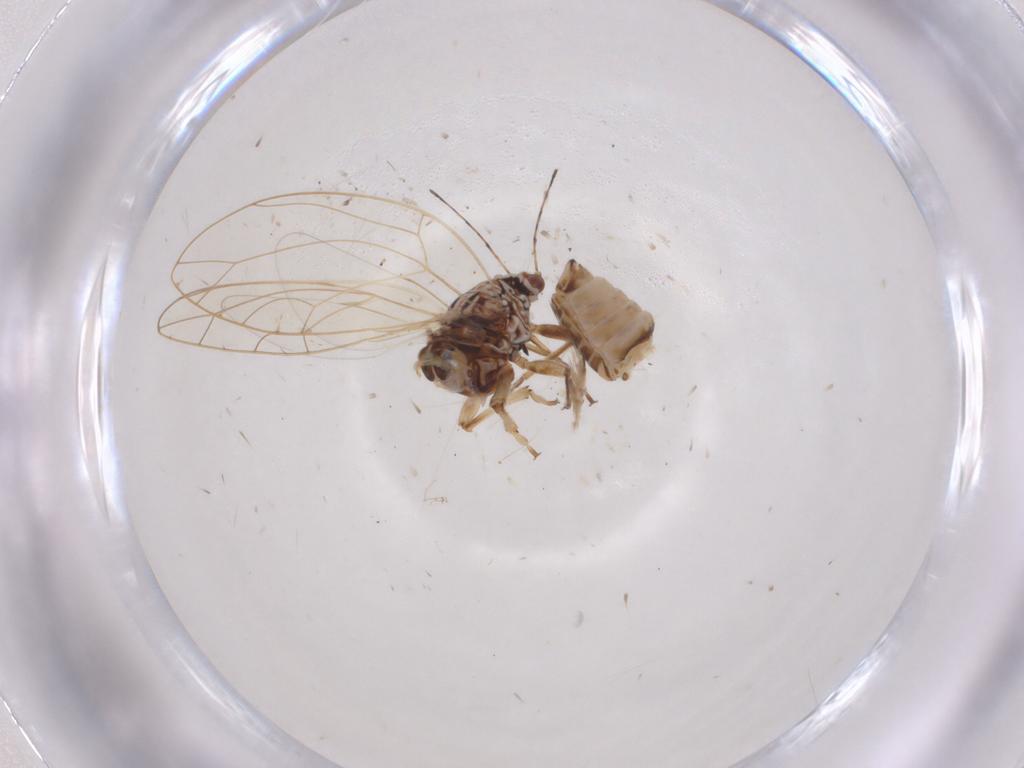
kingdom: Animalia
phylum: Arthropoda
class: Insecta
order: Hemiptera
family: Triozidae
